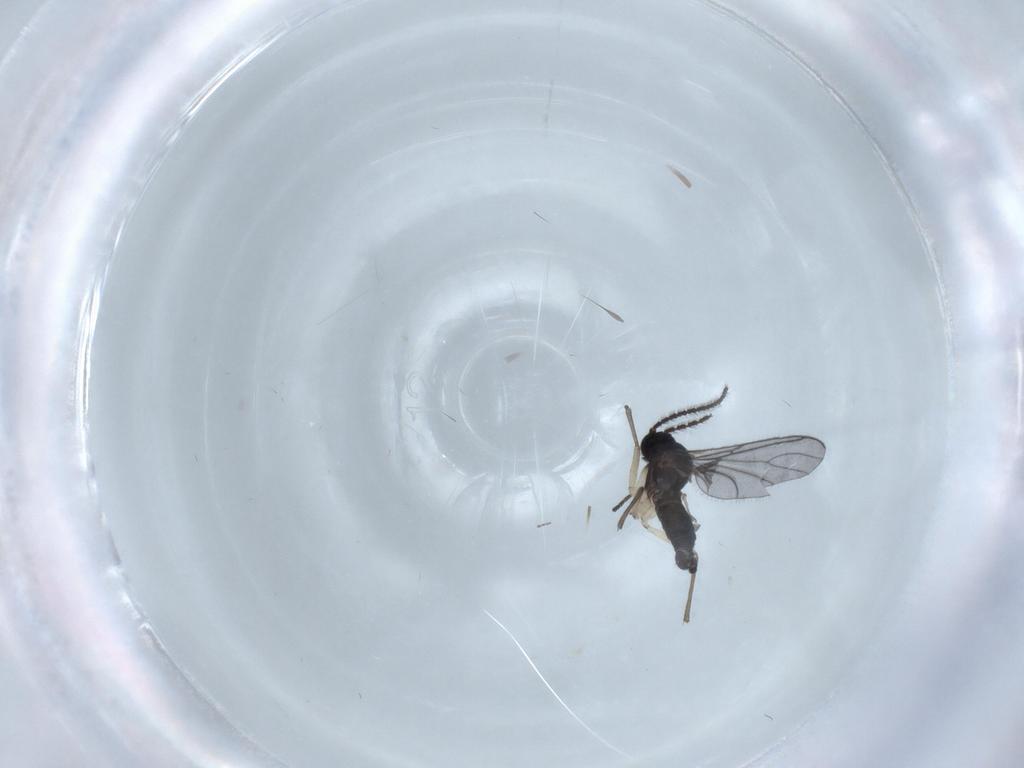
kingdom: Animalia
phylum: Arthropoda
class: Insecta
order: Diptera
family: Sciaridae
